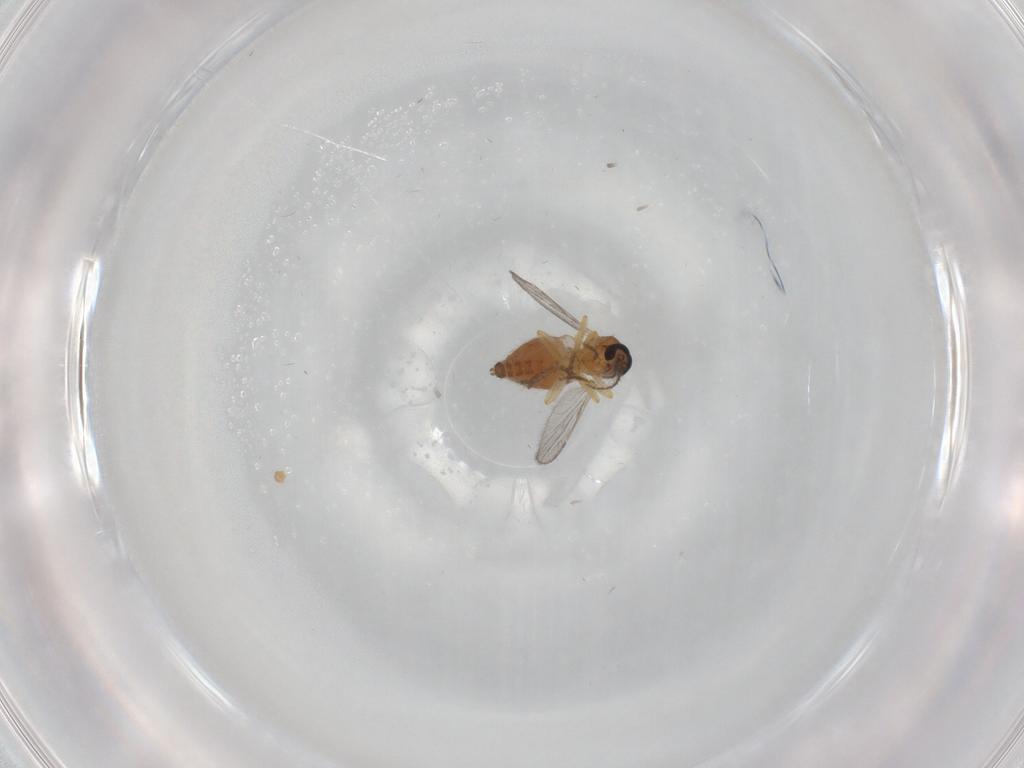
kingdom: Animalia
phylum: Arthropoda
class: Insecta
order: Diptera
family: Ceratopogonidae
